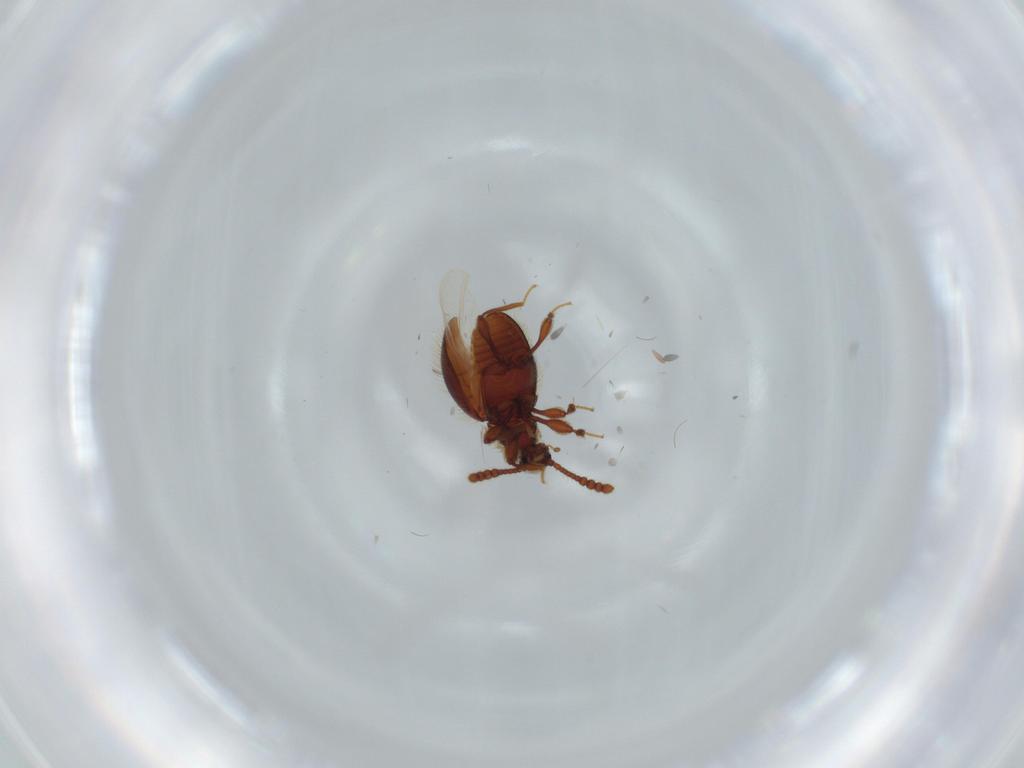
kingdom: Animalia
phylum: Arthropoda
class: Insecta
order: Coleoptera
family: Staphylinidae
